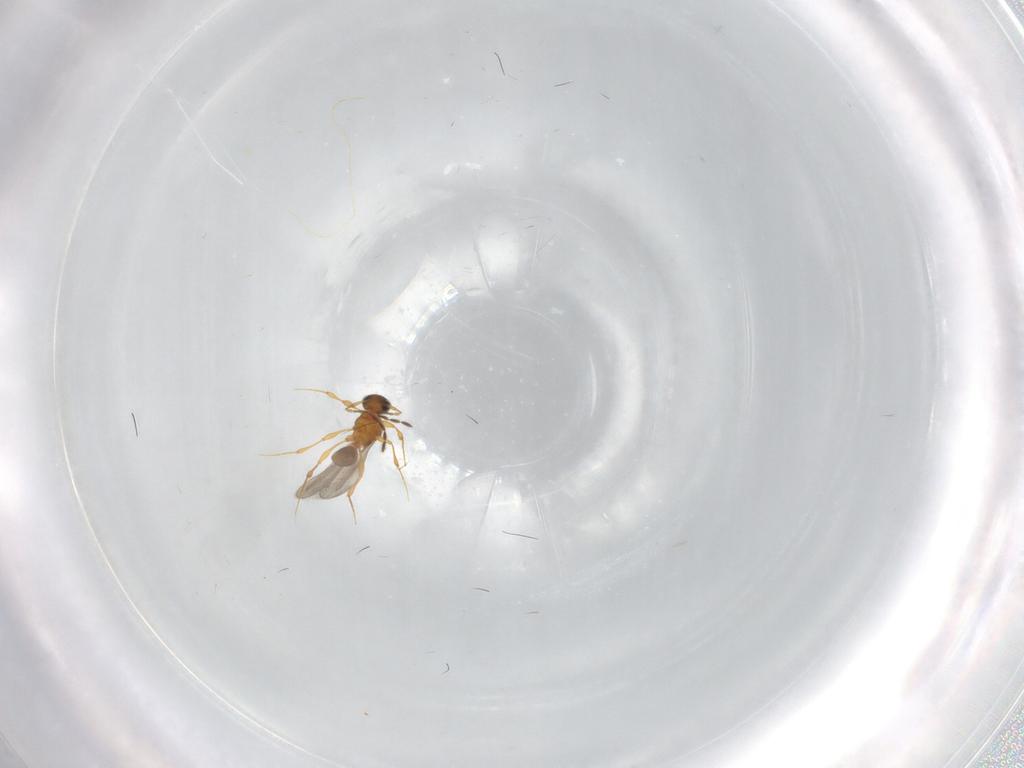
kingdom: Animalia
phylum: Arthropoda
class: Insecta
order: Hymenoptera
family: Platygastridae
